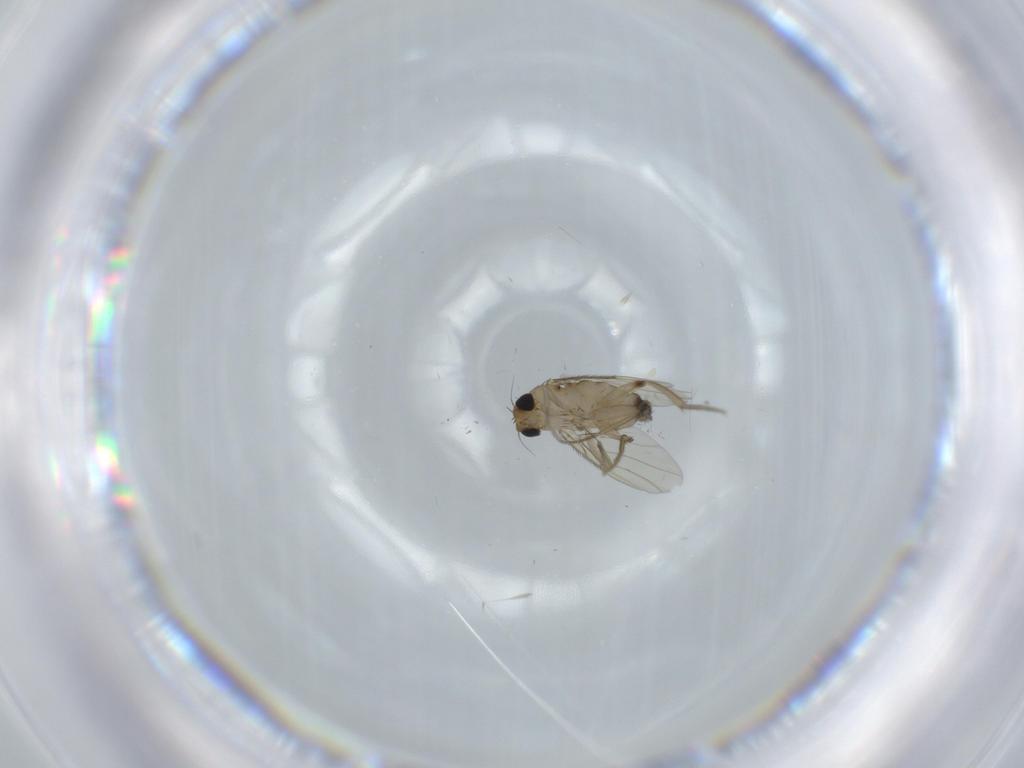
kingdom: Animalia
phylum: Arthropoda
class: Insecta
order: Diptera
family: Phoridae
